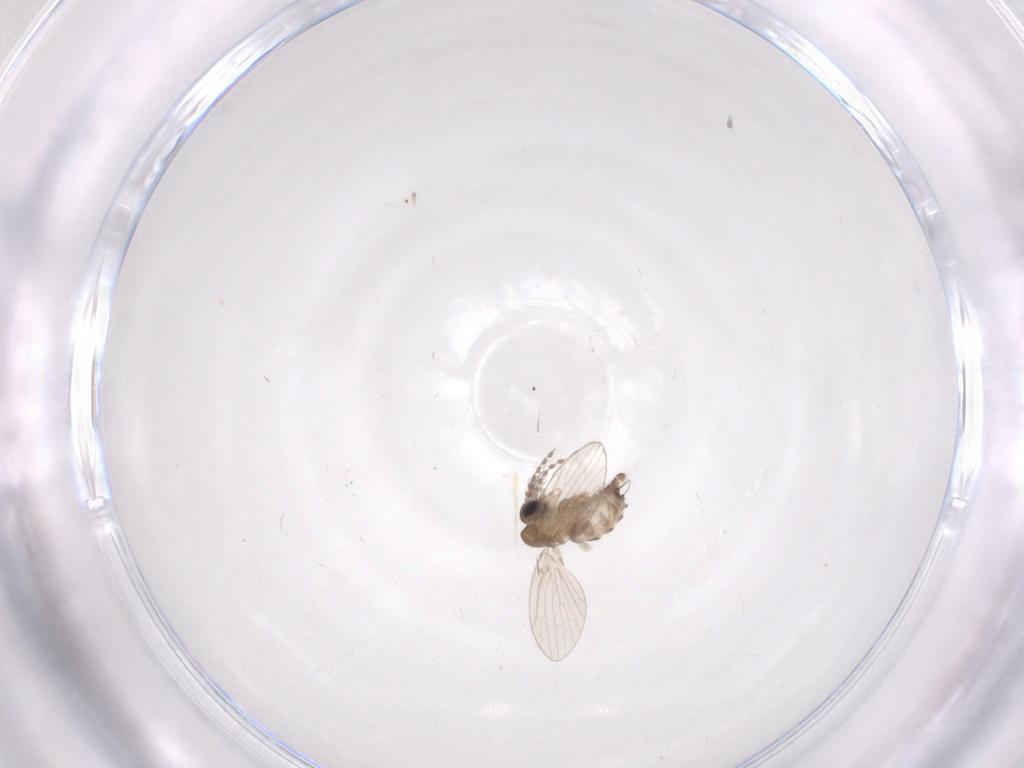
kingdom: Animalia
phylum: Arthropoda
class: Insecta
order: Diptera
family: Psychodidae
